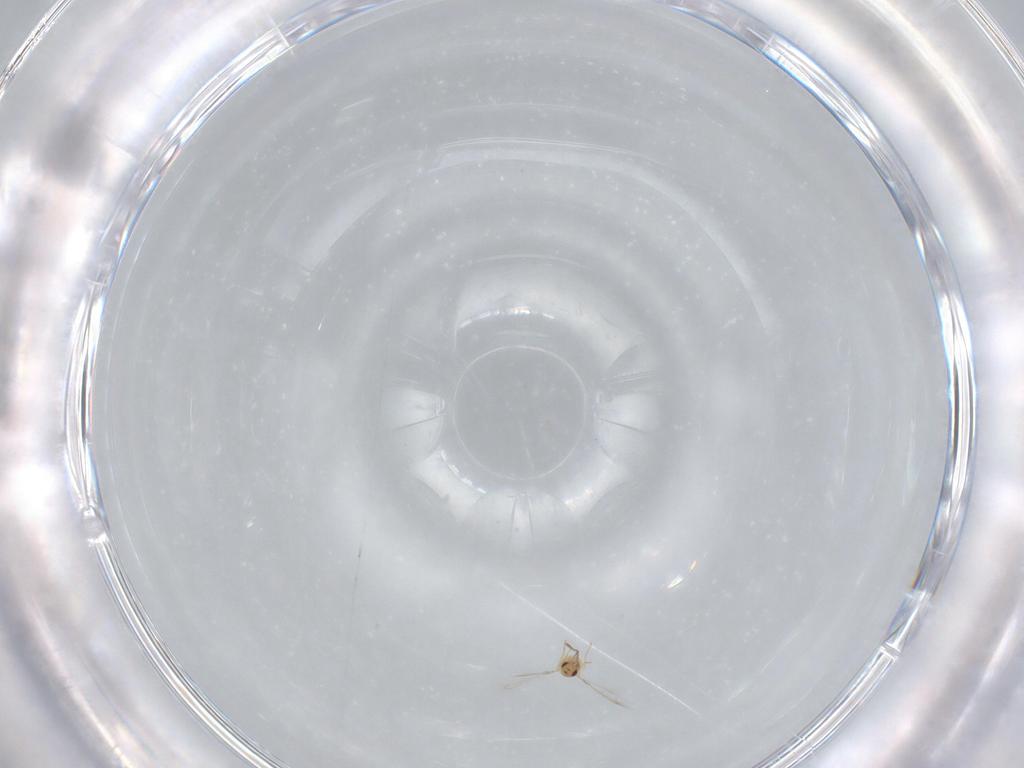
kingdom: Animalia
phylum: Arthropoda
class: Insecta
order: Hymenoptera
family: Mymaridae
